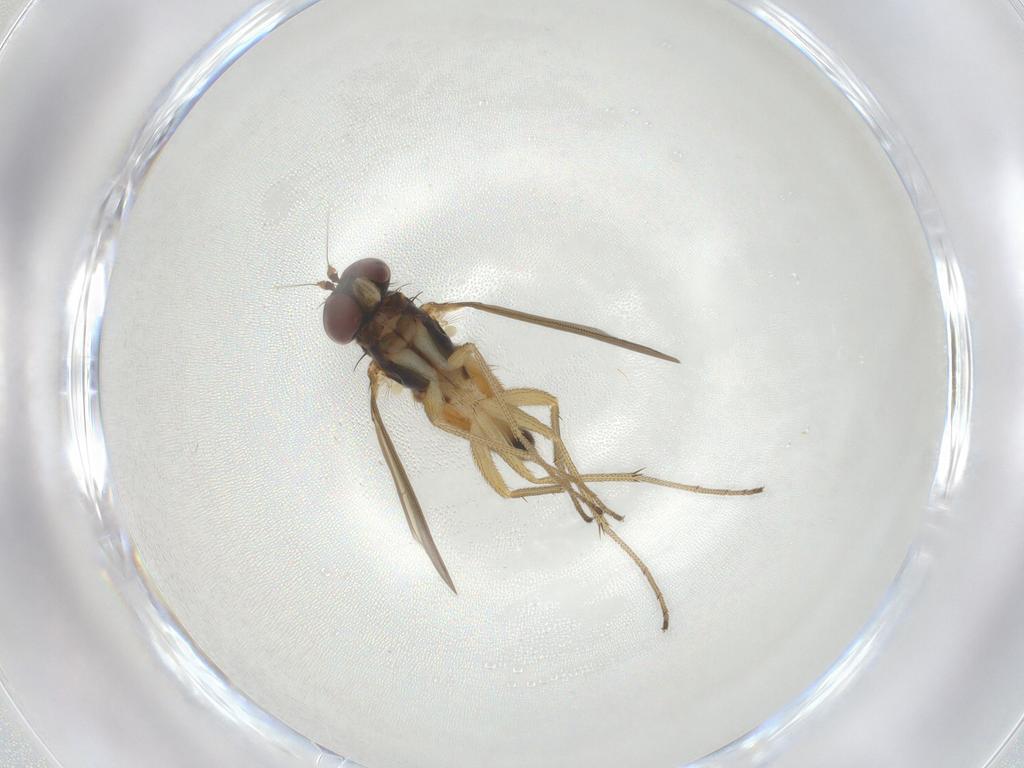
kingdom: Animalia
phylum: Arthropoda
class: Insecta
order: Diptera
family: Dolichopodidae
